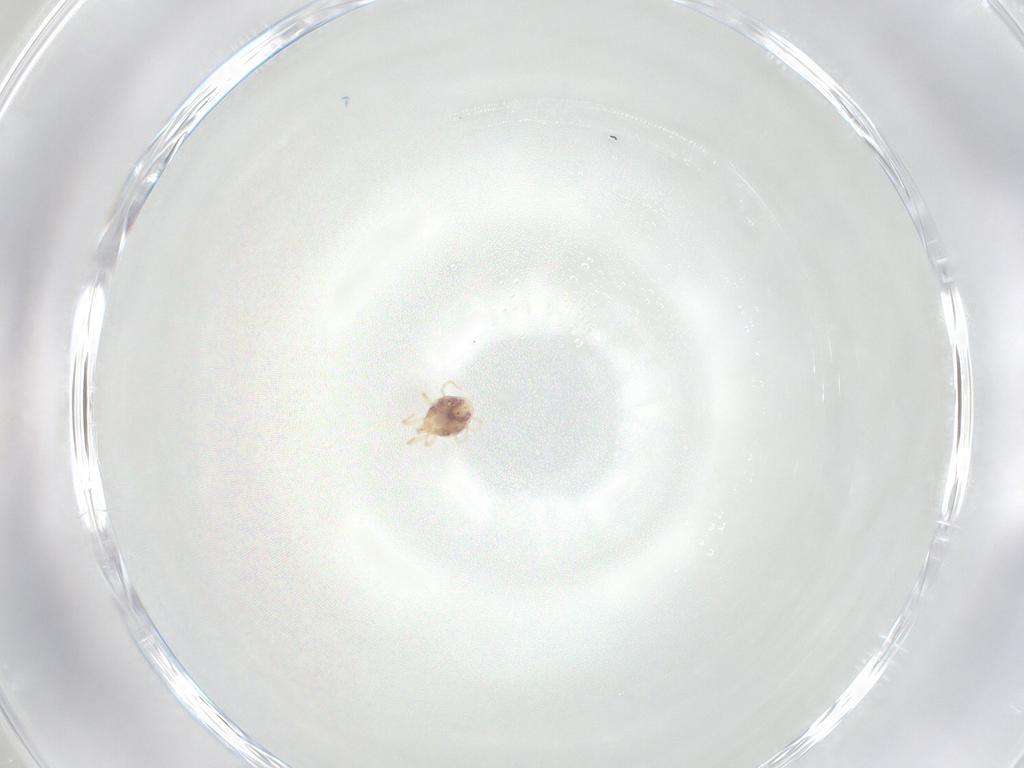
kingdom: Animalia
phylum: Arthropoda
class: Arachnida
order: Mesostigmata
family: Phytoseiidae
